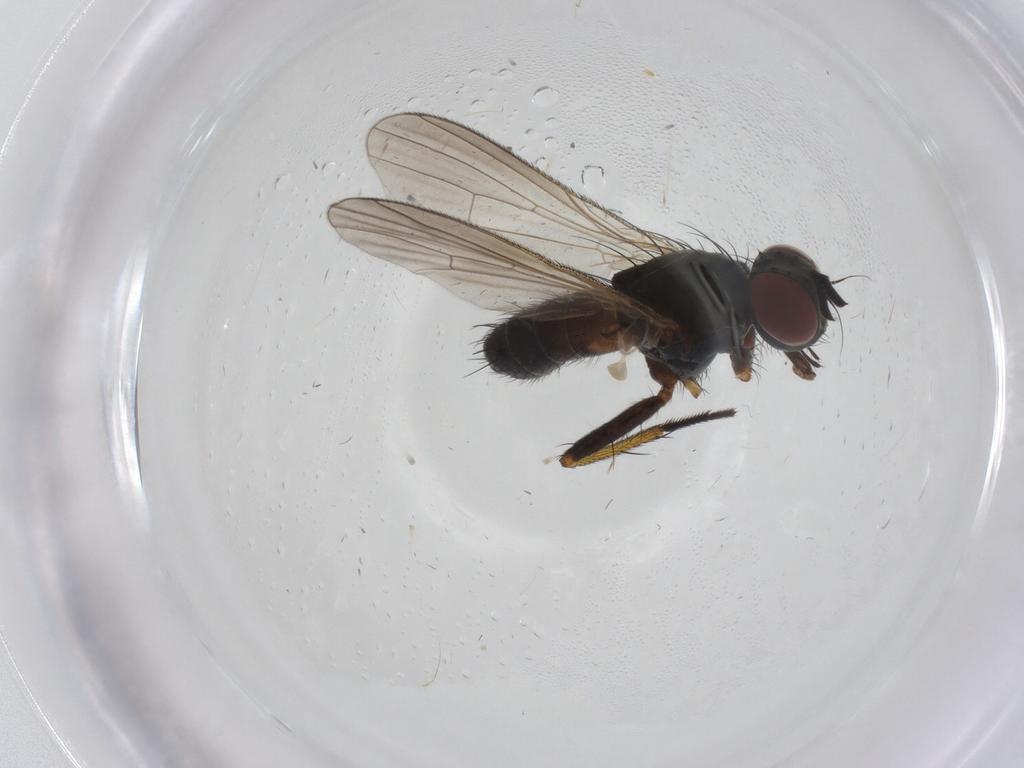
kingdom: Animalia
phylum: Arthropoda
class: Insecta
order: Diptera
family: Muscidae
